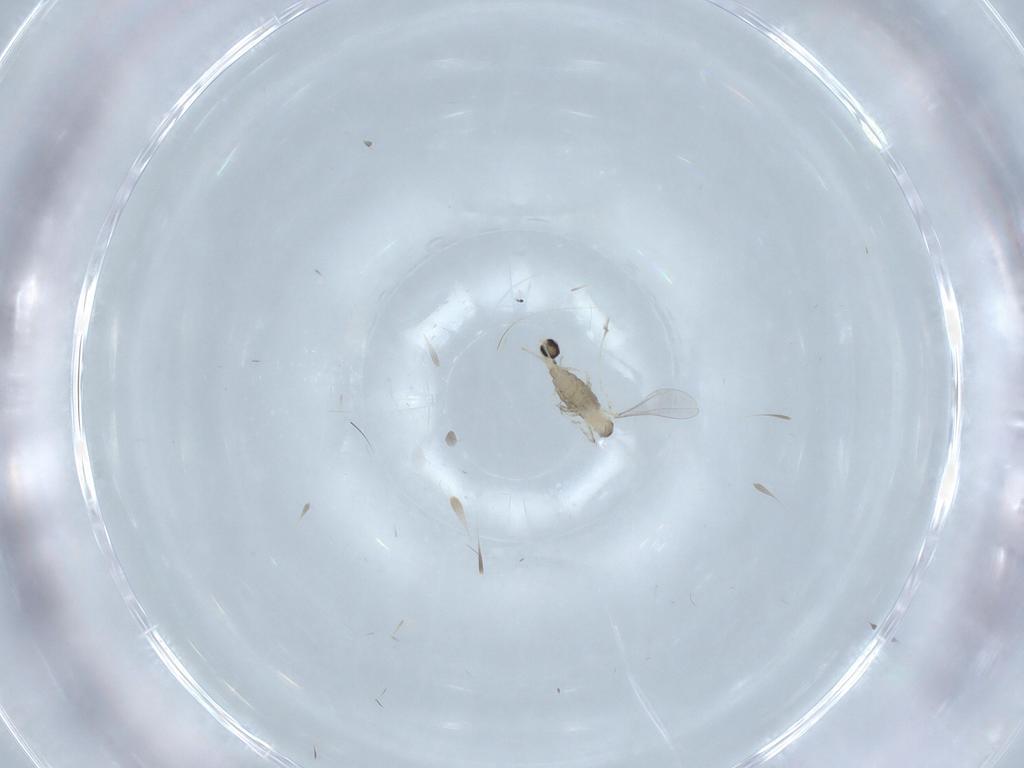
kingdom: Animalia
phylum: Arthropoda
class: Insecta
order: Diptera
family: Cecidomyiidae
